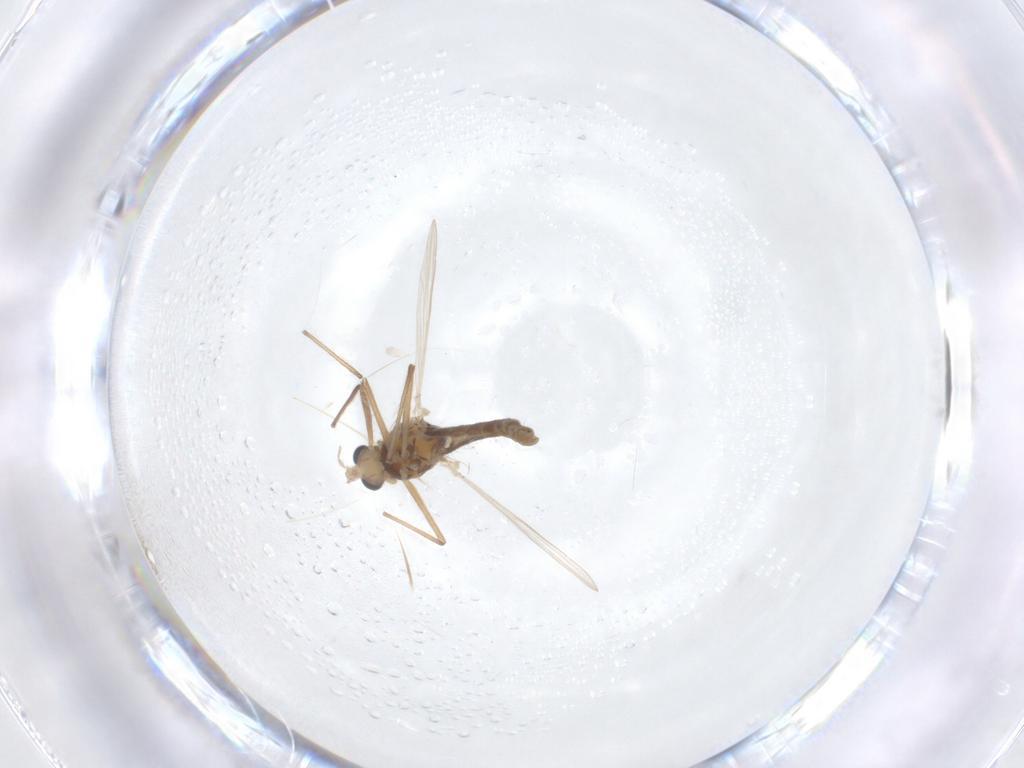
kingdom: Animalia
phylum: Arthropoda
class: Insecta
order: Diptera
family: Chironomidae
